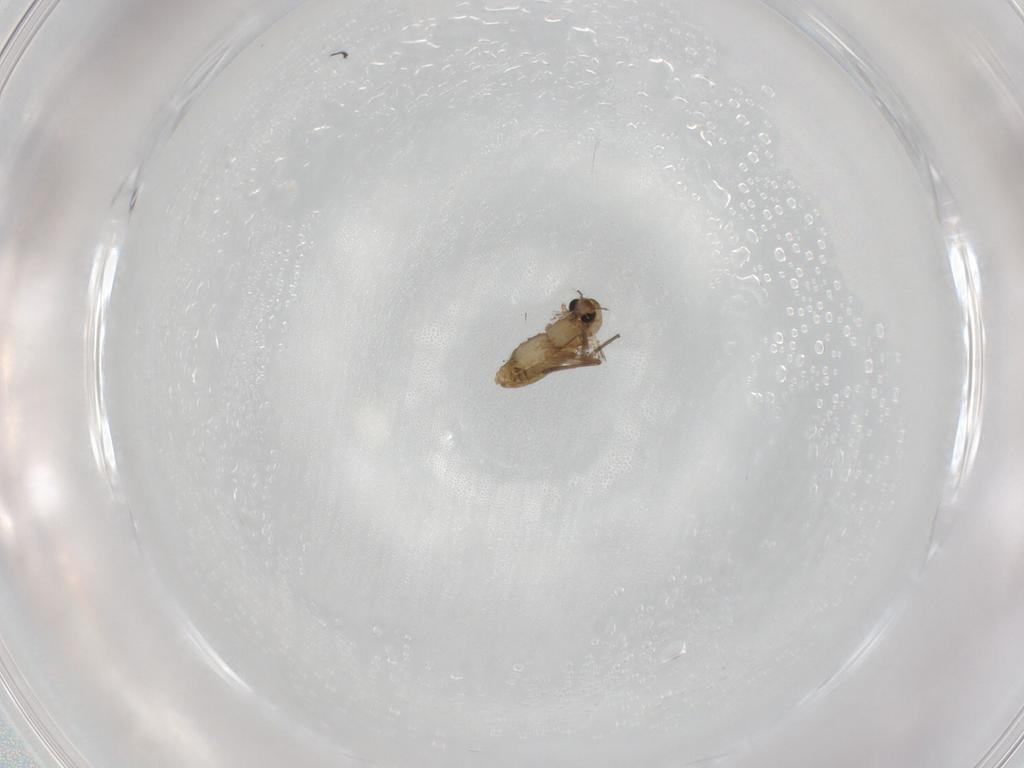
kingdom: Animalia
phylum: Arthropoda
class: Insecta
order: Diptera
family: Chironomidae
